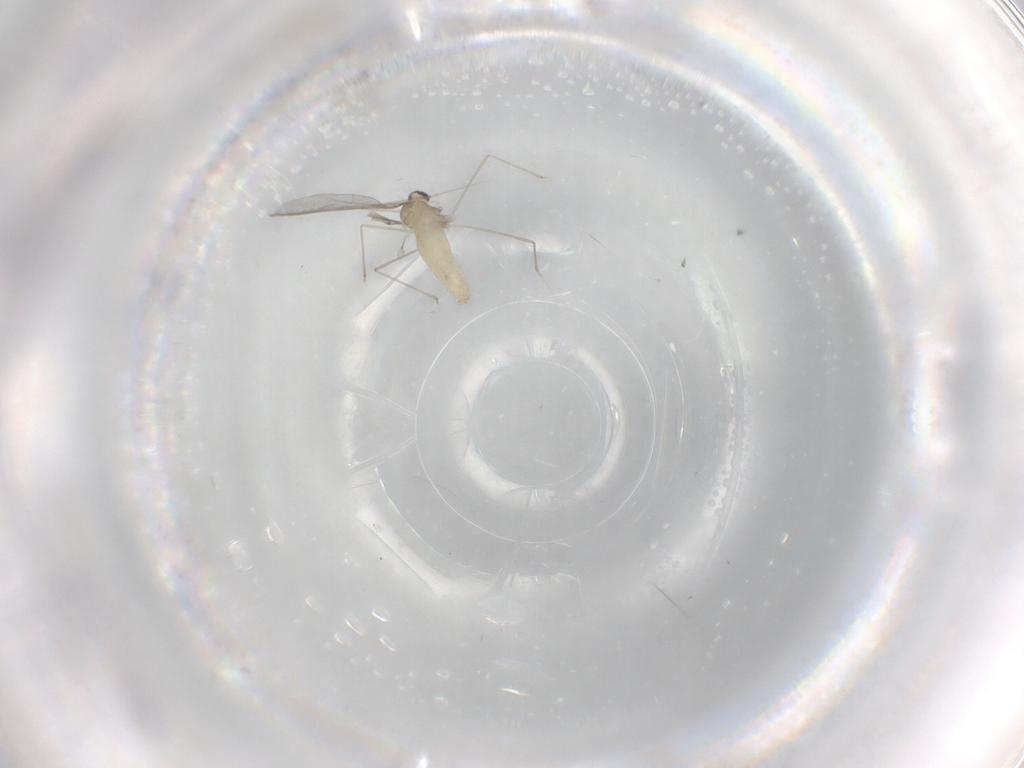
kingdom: Animalia
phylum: Arthropoda
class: Insecta
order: Diptera
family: Cecidomyiidae
